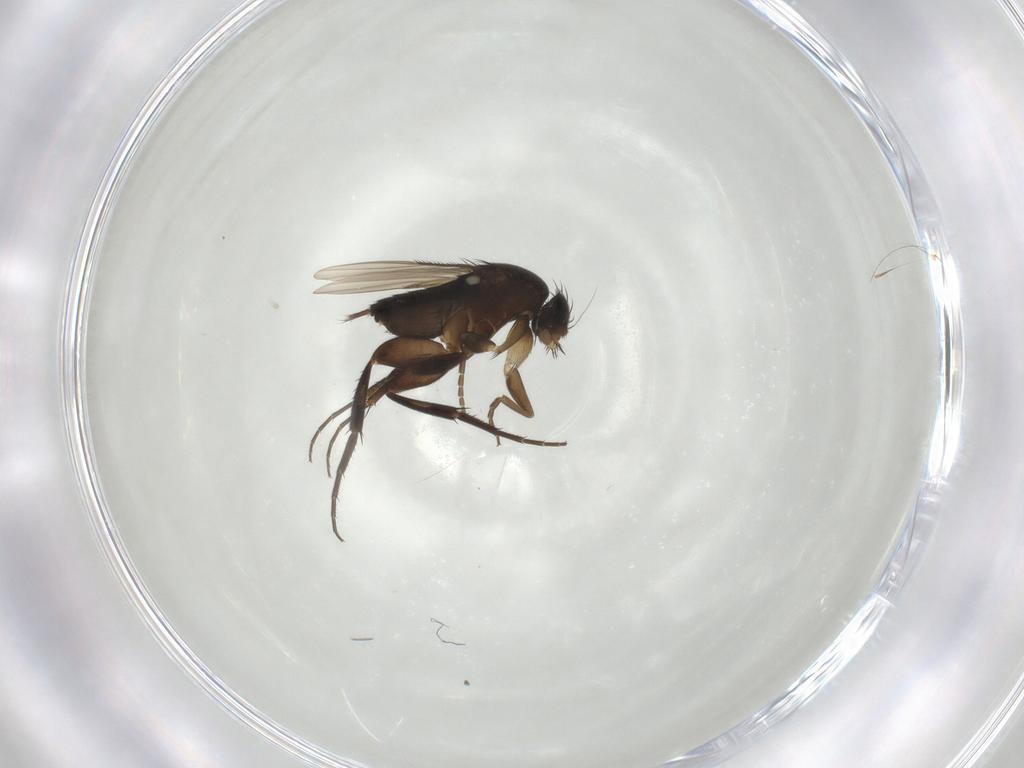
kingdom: Animalia
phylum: Arthropoda
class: Insecta
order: Diptera
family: Phoridae
